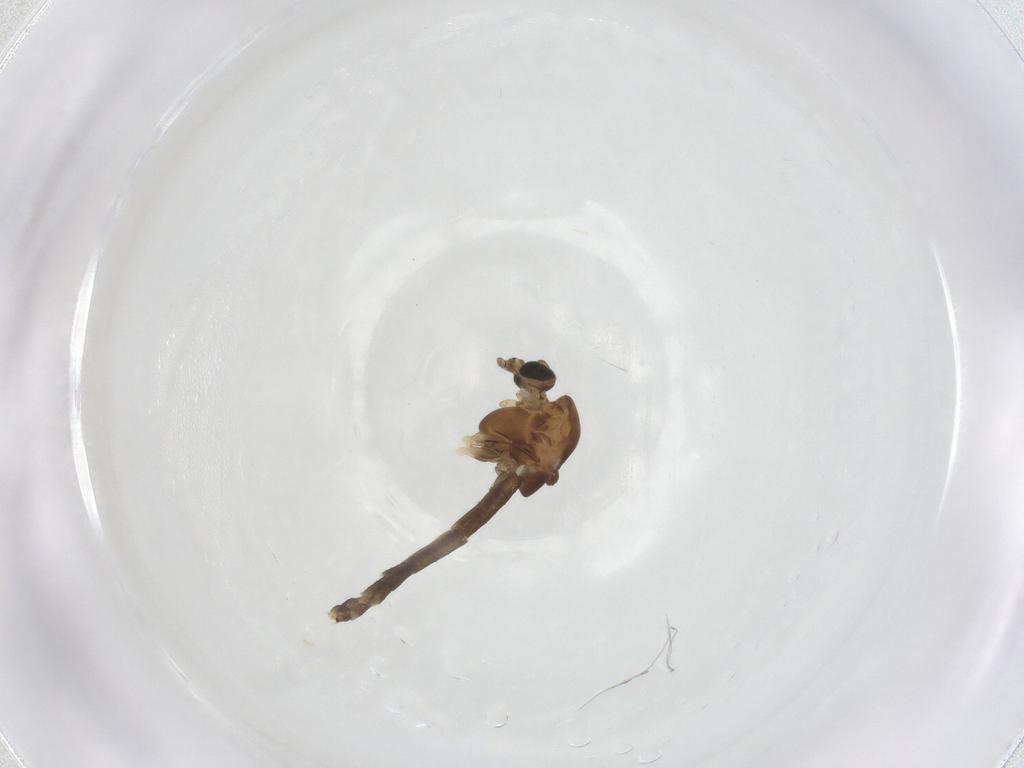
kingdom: Animalia
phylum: Arthropoda
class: Insecta
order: Diptera
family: Chironomidae
